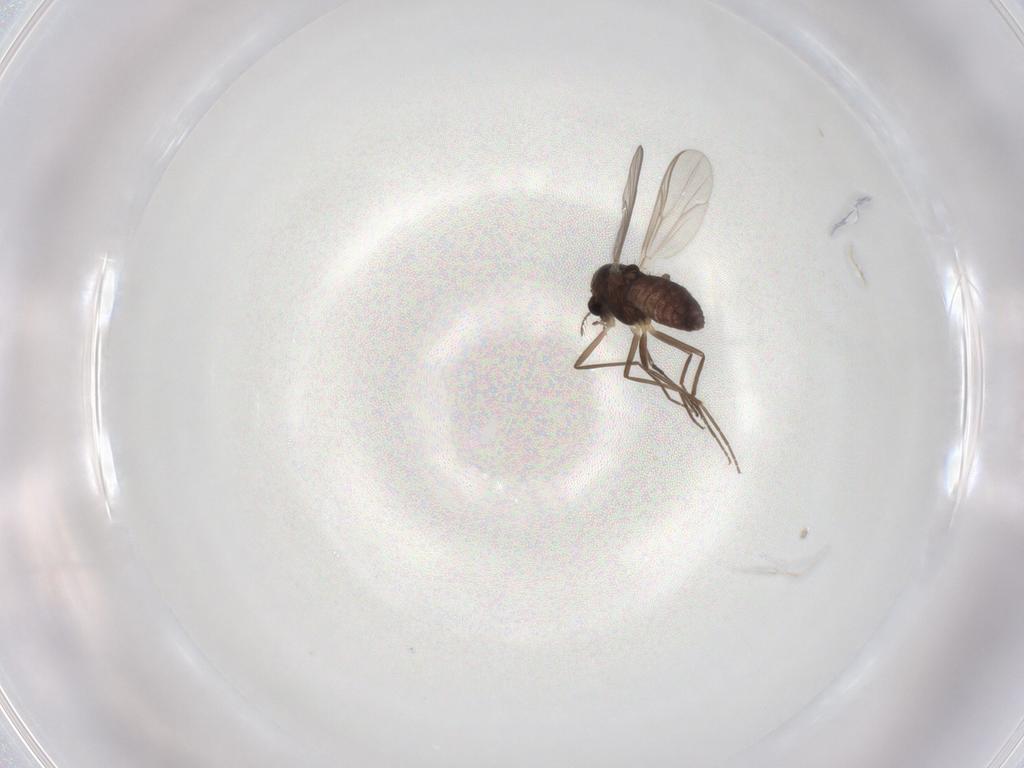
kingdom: Animalia
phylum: Arthropoda
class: Insecta
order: Diptera
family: Chironomidae
